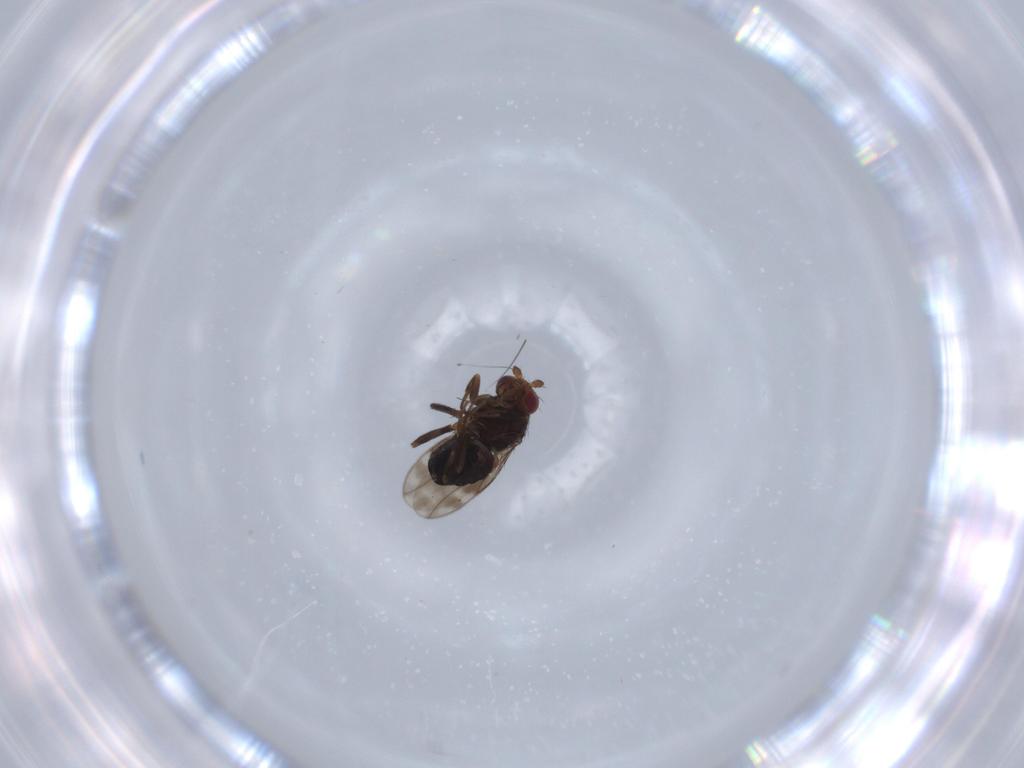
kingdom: Animalia
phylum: Arthropoda
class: Insecta
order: Diptera
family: Sphaeroceridae
